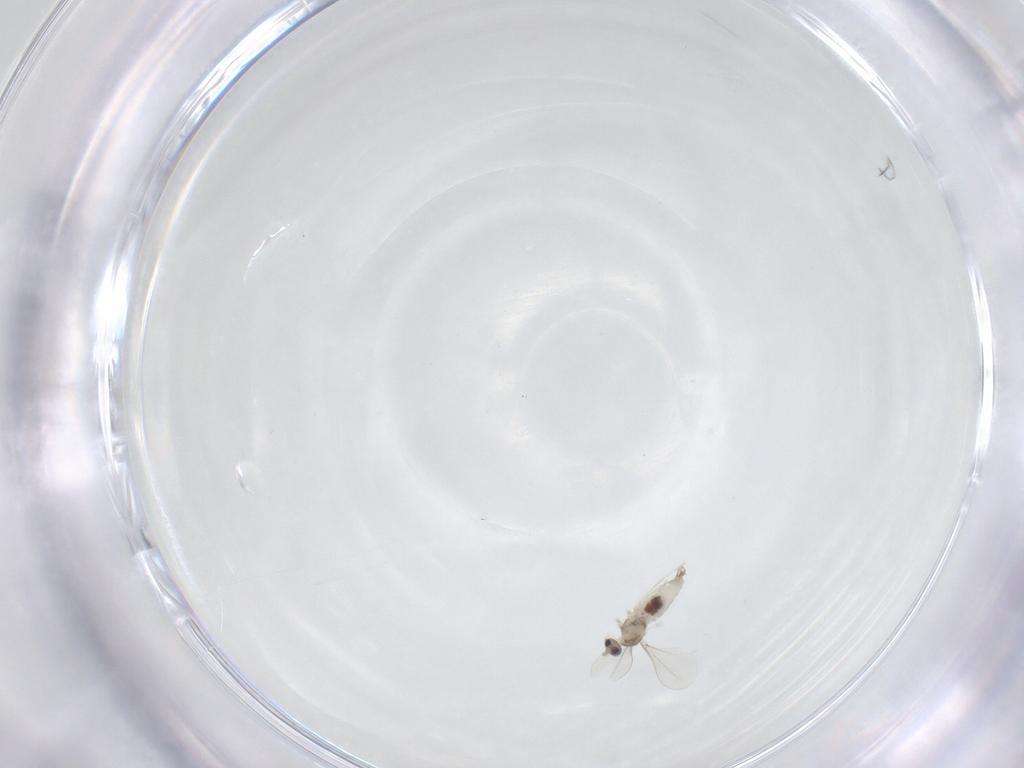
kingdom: Animalia
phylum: Arthropoda
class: Insecta
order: Diptera
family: Cecidomyiidae
